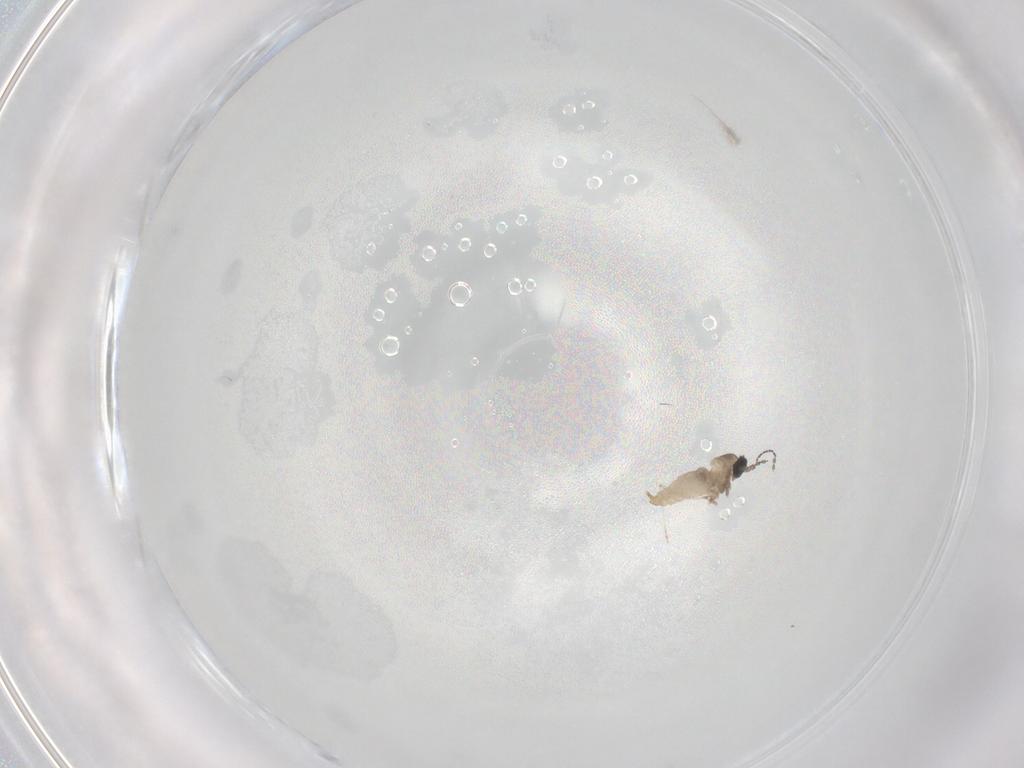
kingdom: Animalia
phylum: Arthropoda
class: Insecta
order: Diptera
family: Cecidomyiidae
